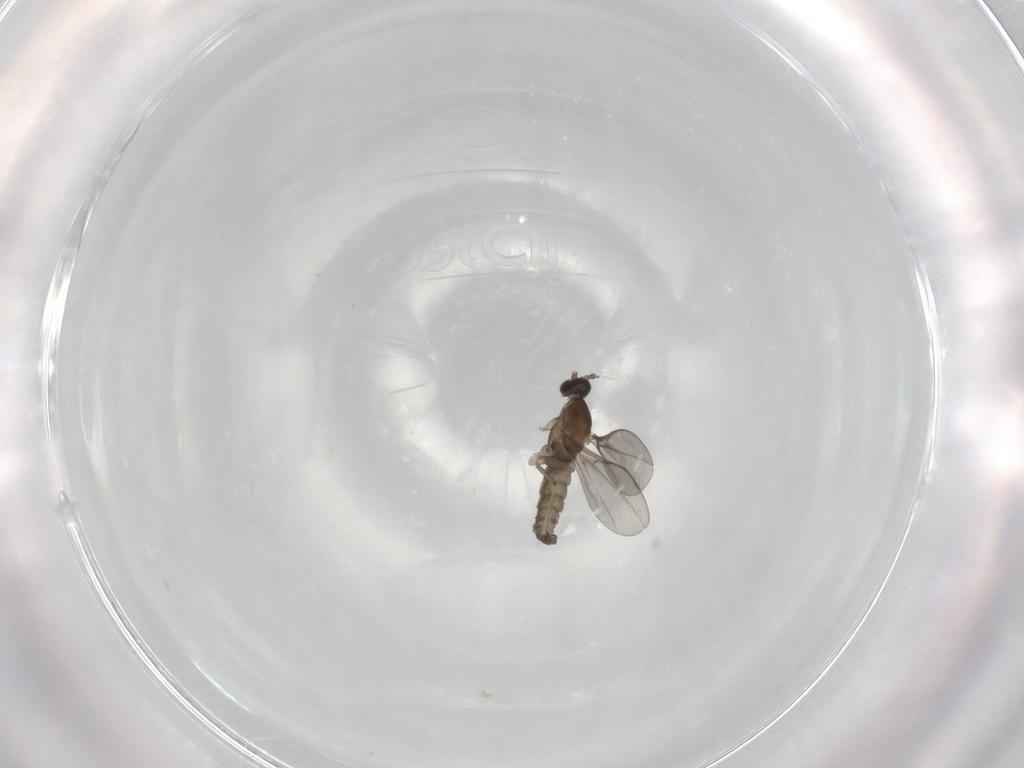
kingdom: Animalia
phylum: Arthropoda
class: Insecta
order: Diptera
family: Cecidomyiidae
